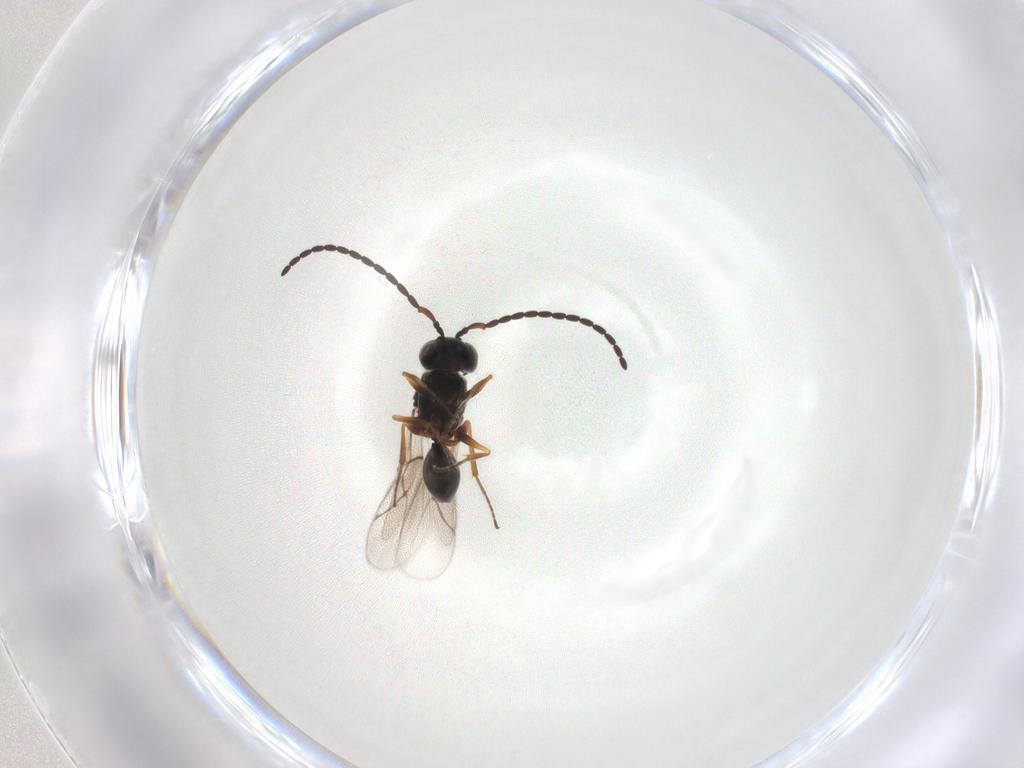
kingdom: Animalia
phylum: Arthropoda
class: Insecta
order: Hymenoptera
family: Figitidae
